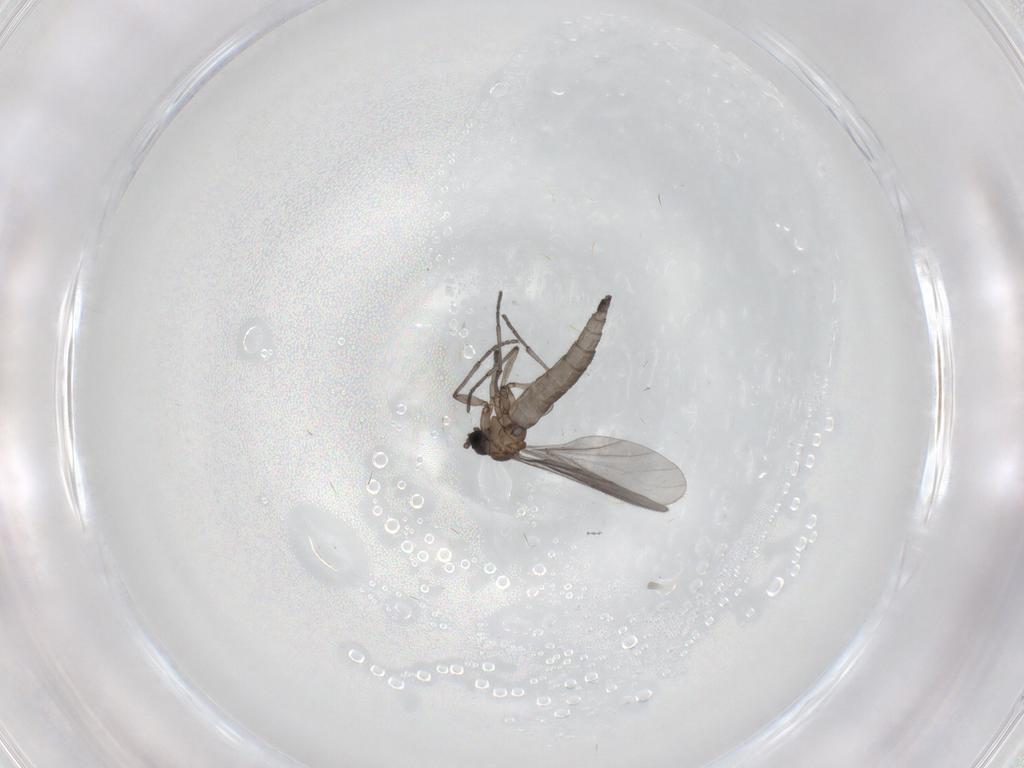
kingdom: Animalia
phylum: Arthropoda
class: Insecta
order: Diptera
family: Sciaridae
